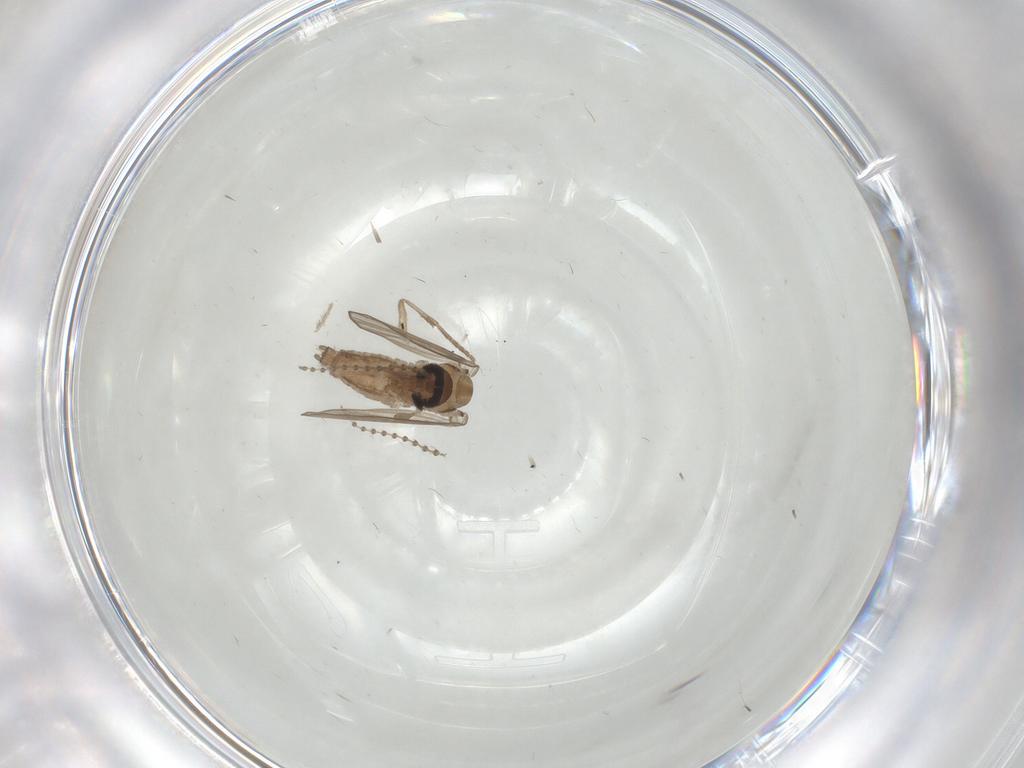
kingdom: Animalia
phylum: Arthropoda
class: Insecta
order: Diptera
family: Psychodidae
